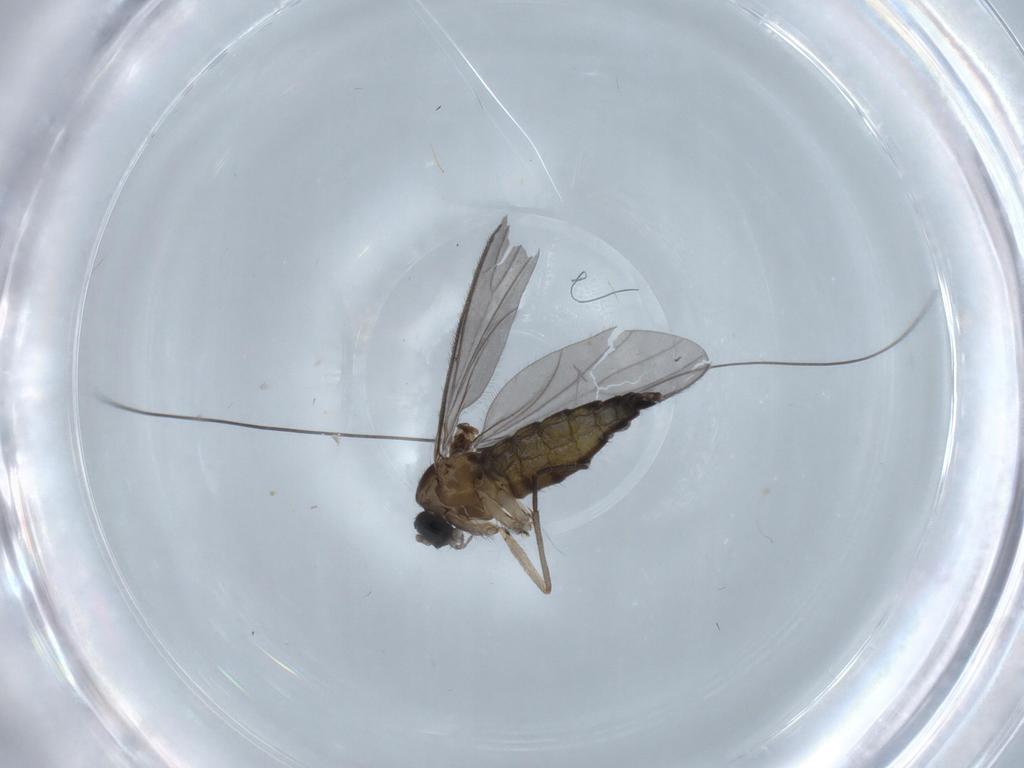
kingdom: Animalia
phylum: Arthropoda
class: Insecta
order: Diptera
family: Sciaridae
